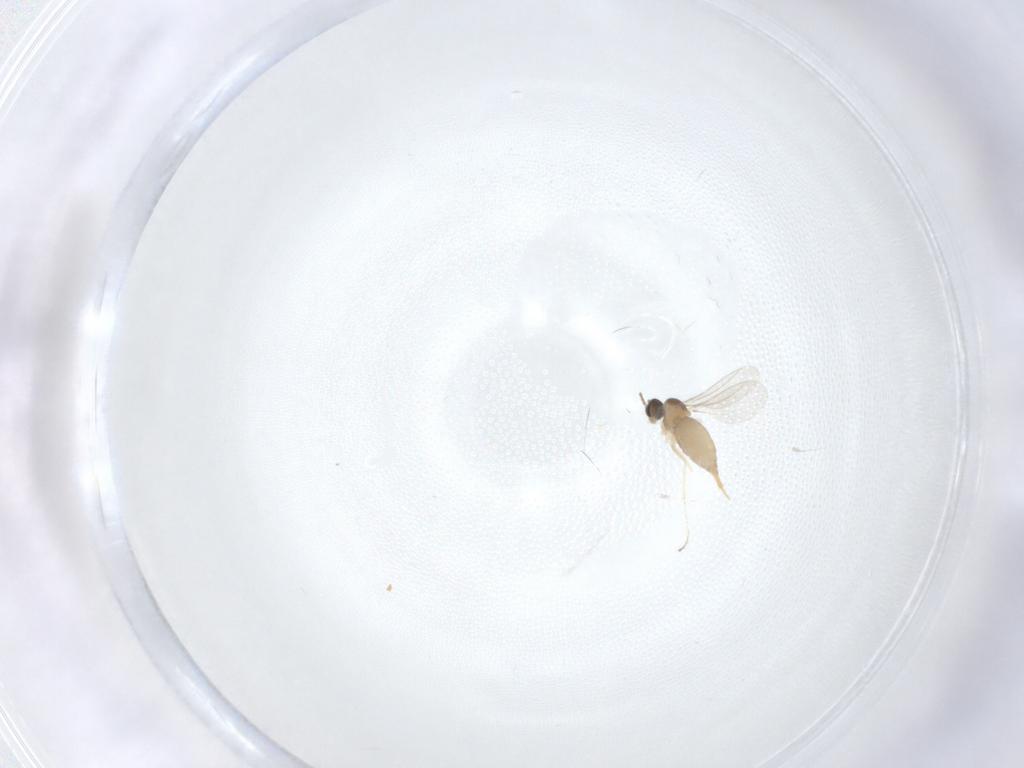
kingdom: Animalia
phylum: Arthropoda
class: Insecta
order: Diptera
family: Cecidomyiidae
